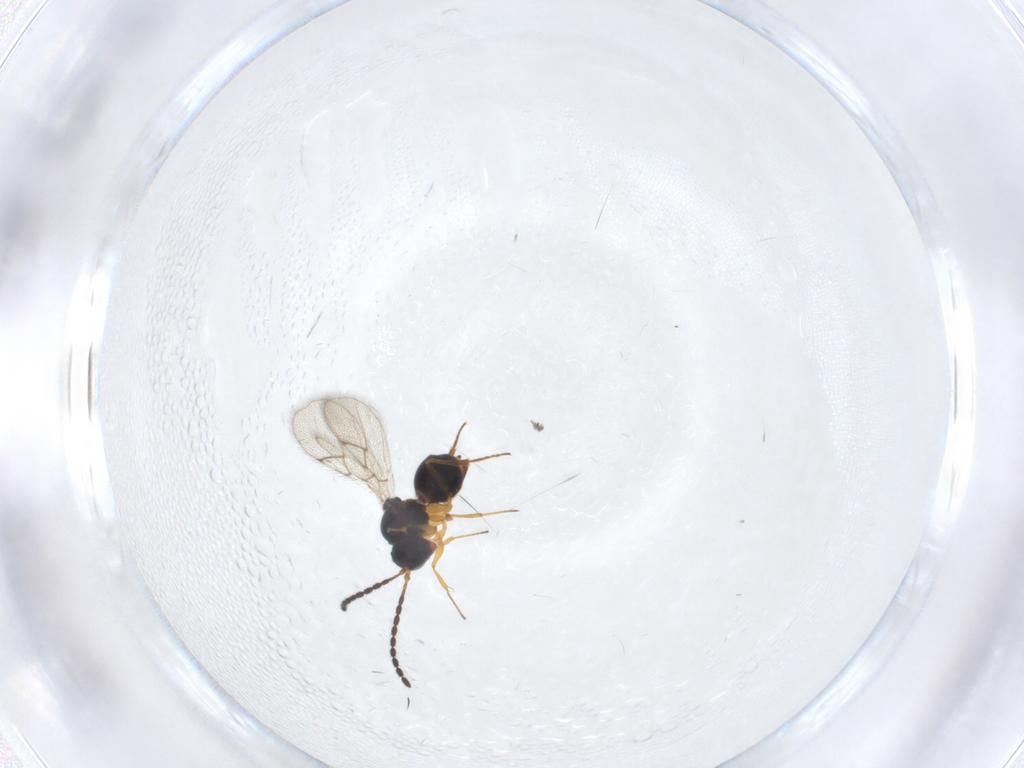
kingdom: Animalia
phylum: Arthropoda
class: Insecta
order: Hymenoptera
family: Figitidae
